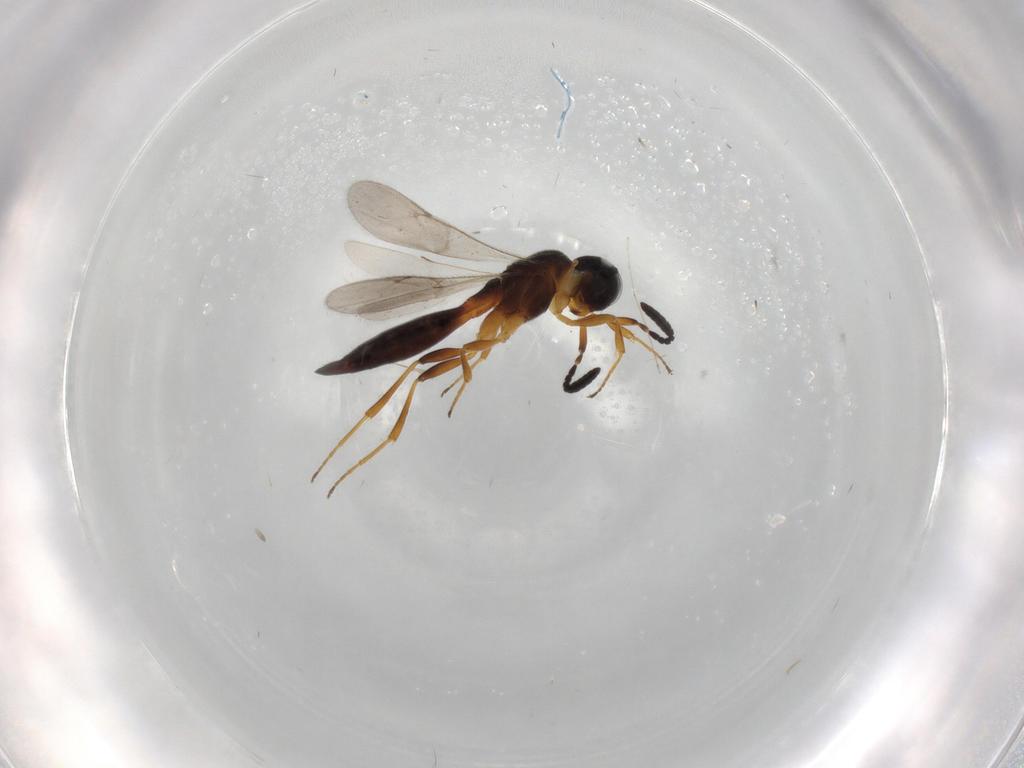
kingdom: Animalia
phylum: Arthropoda
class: Insecta
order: Hymenoptera
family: Scelionidae
